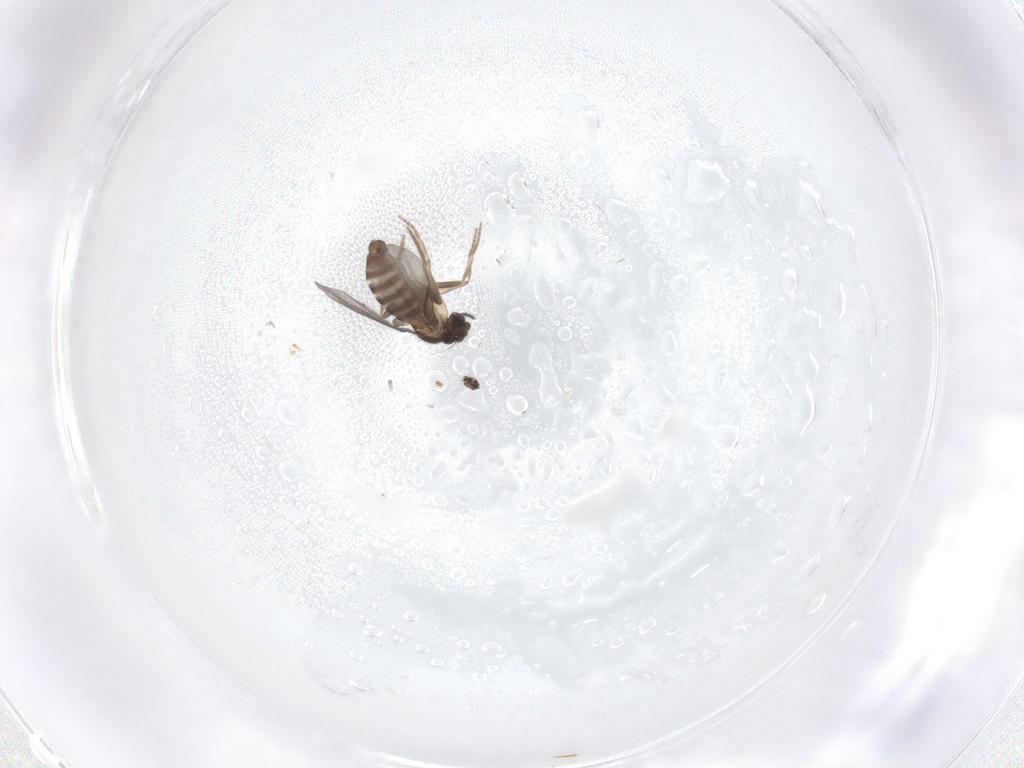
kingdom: Animalia
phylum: Arthropoda
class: Insecta
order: Diptera
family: Chironomidae
